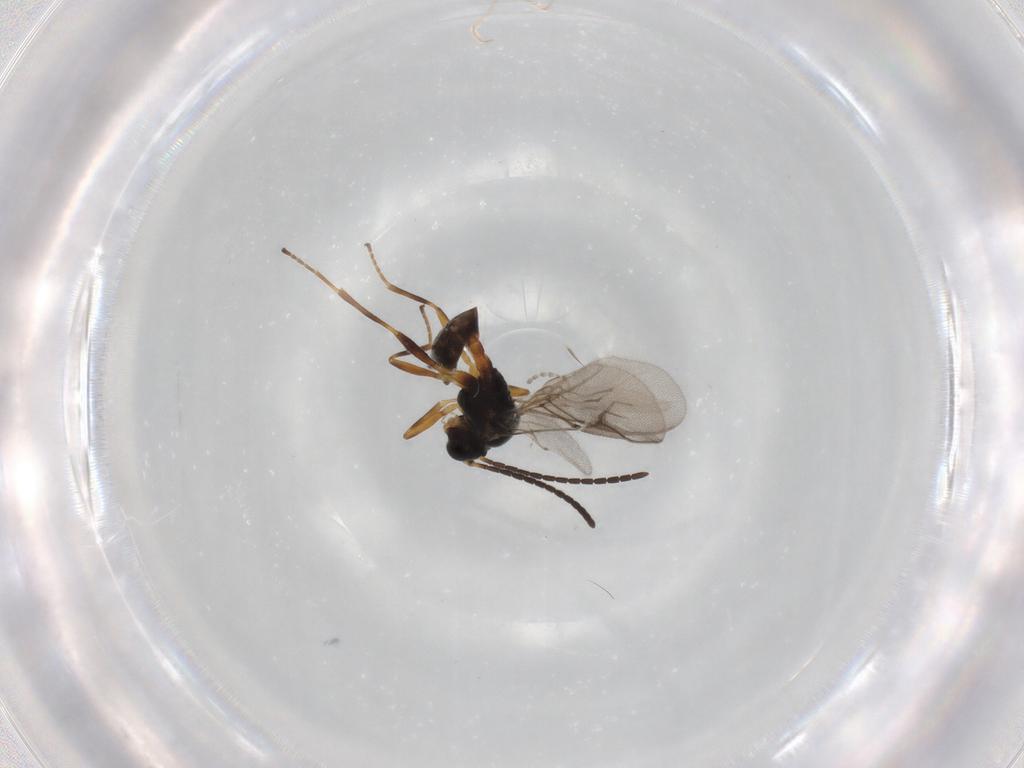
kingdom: Animalia
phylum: Arthropoda
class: Insecta
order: Hymenoptera
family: Braconidae
